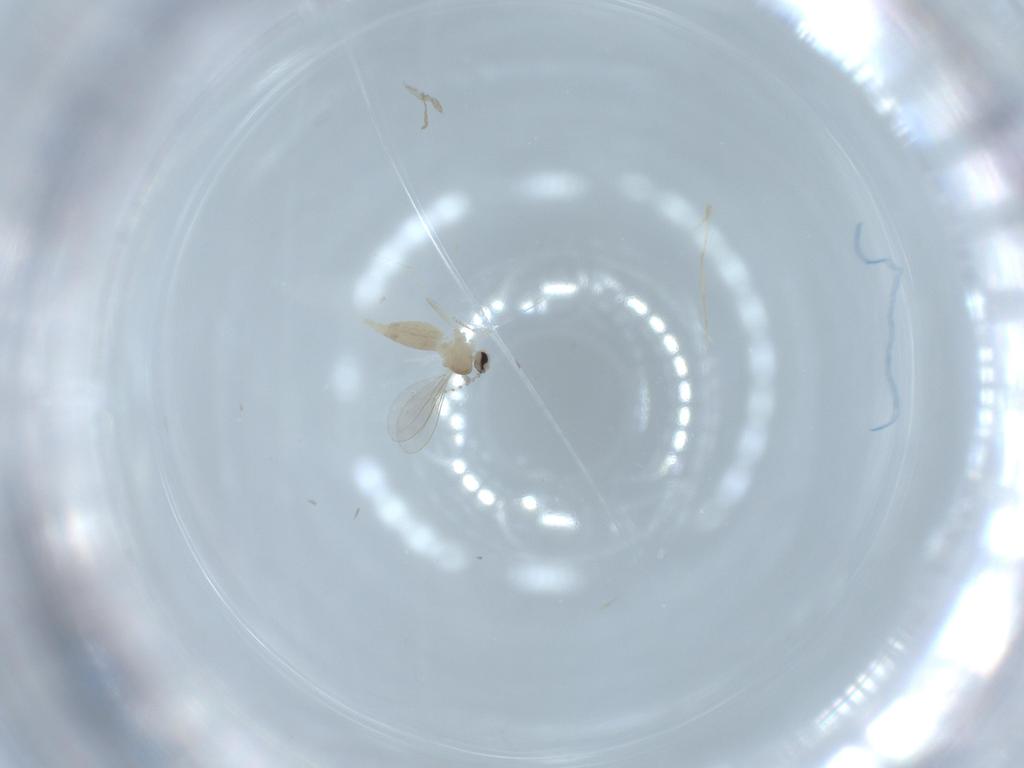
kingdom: Animalia
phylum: Arthropoda
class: Insecta
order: Diptera
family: Cecidomyiidae
